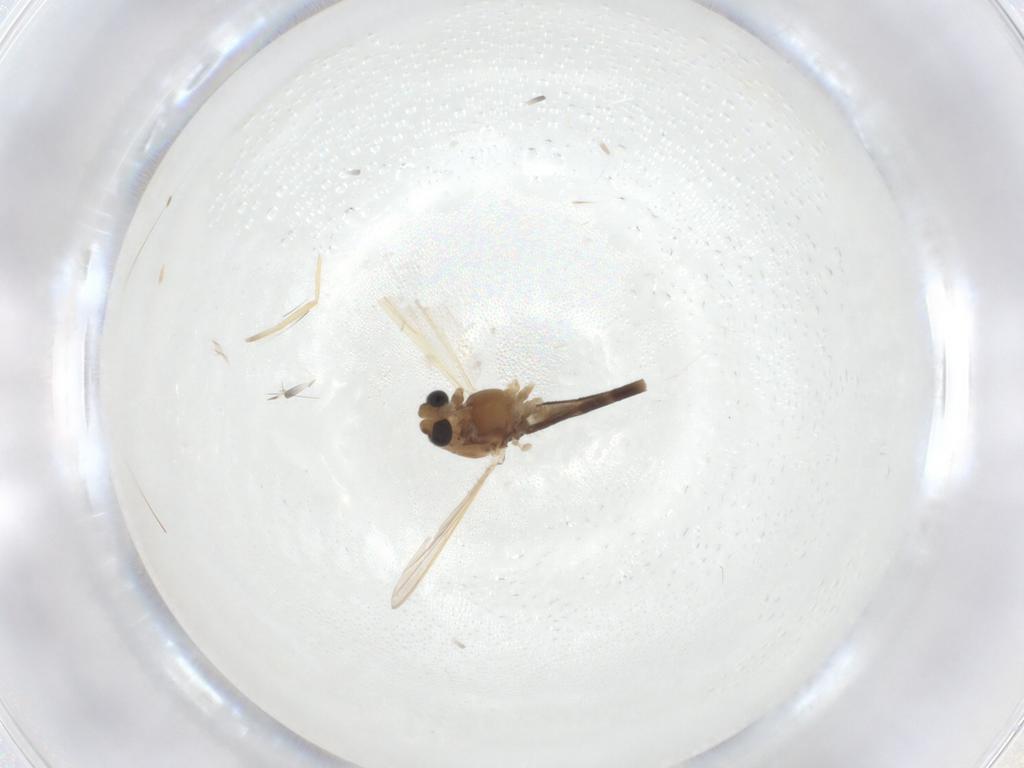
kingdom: Animalia
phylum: Arthropoda
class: Insecta
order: Diptera
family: Chironomidae
